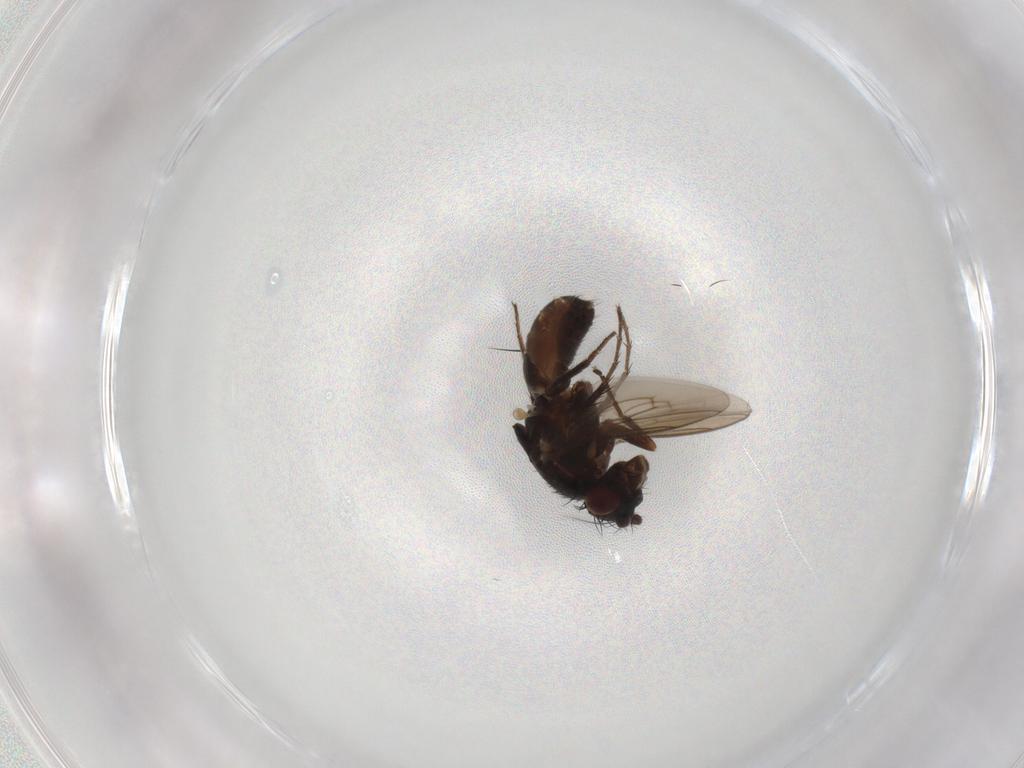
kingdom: Animalia
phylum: Arthropoda
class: Insecta
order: Diptera
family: Sphaeroceridae
